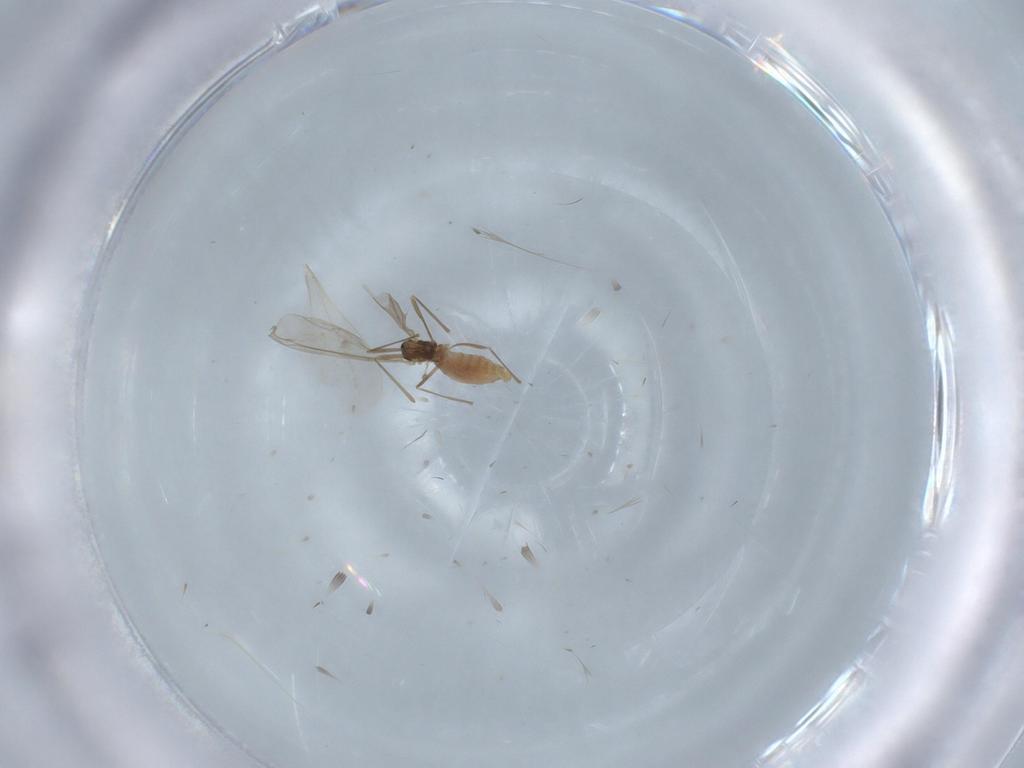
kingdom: Animalia
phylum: Arthropoda
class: Insecta
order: Diptera
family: Cecidomyiidae
